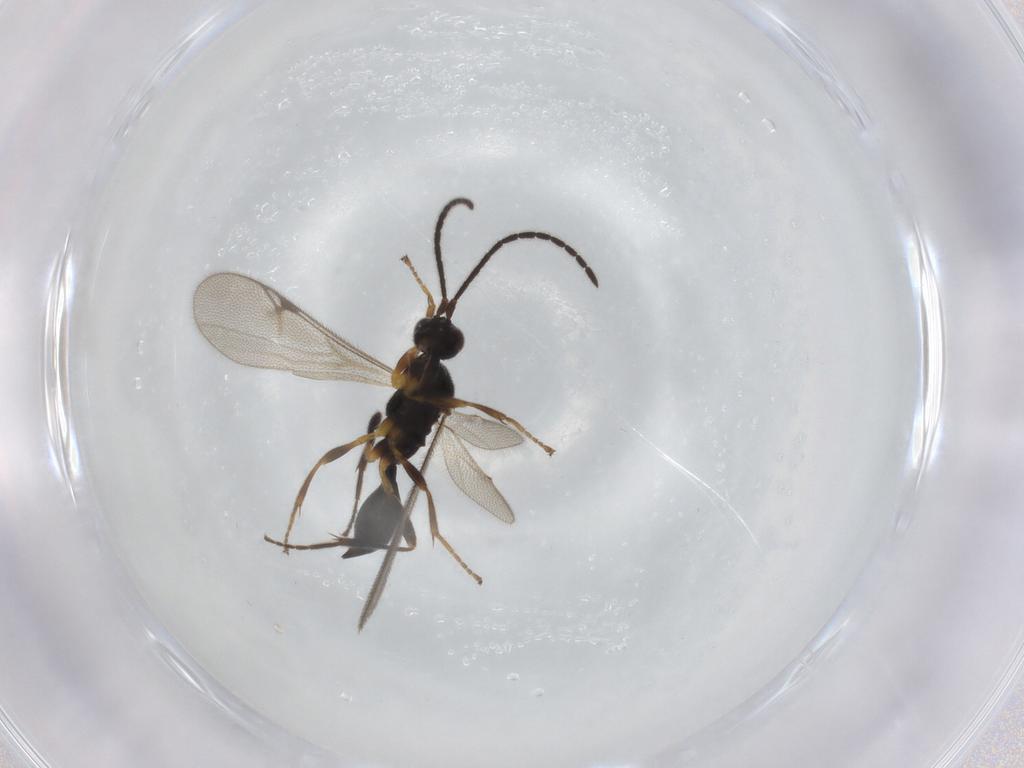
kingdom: Animalia
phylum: Arthropoda
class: Insecta
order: Hymenoptera
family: Proctotrupidae
